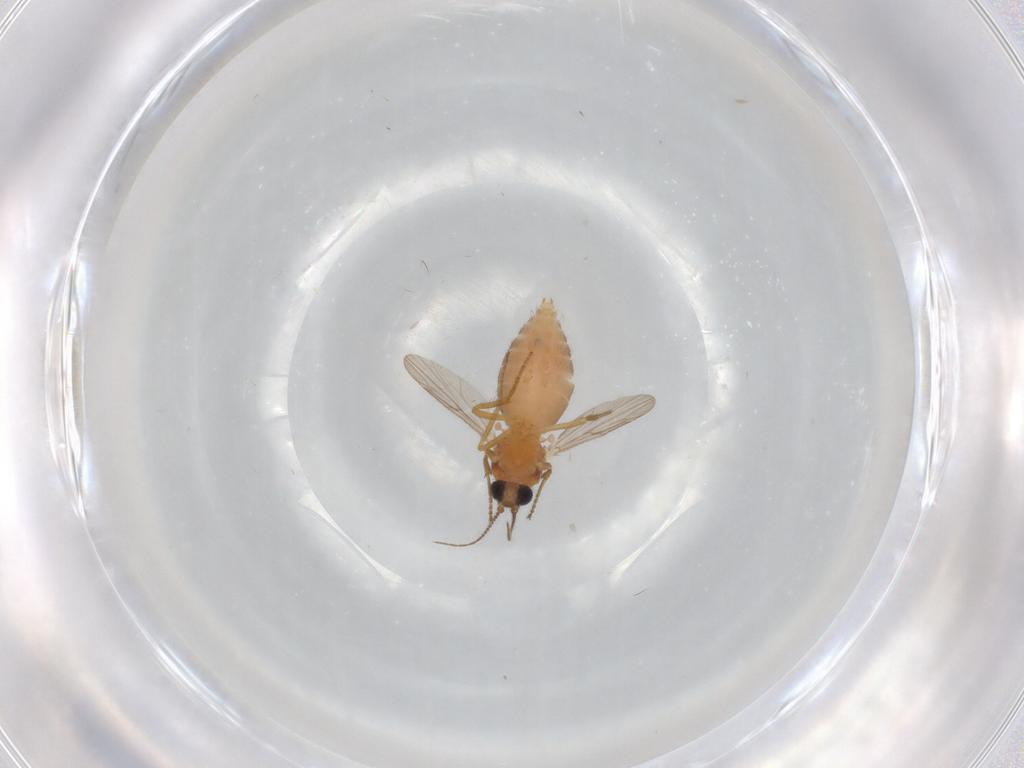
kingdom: Animalia
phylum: Arthropoda
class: Insecta
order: Diptera
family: Ceratopogonidae
